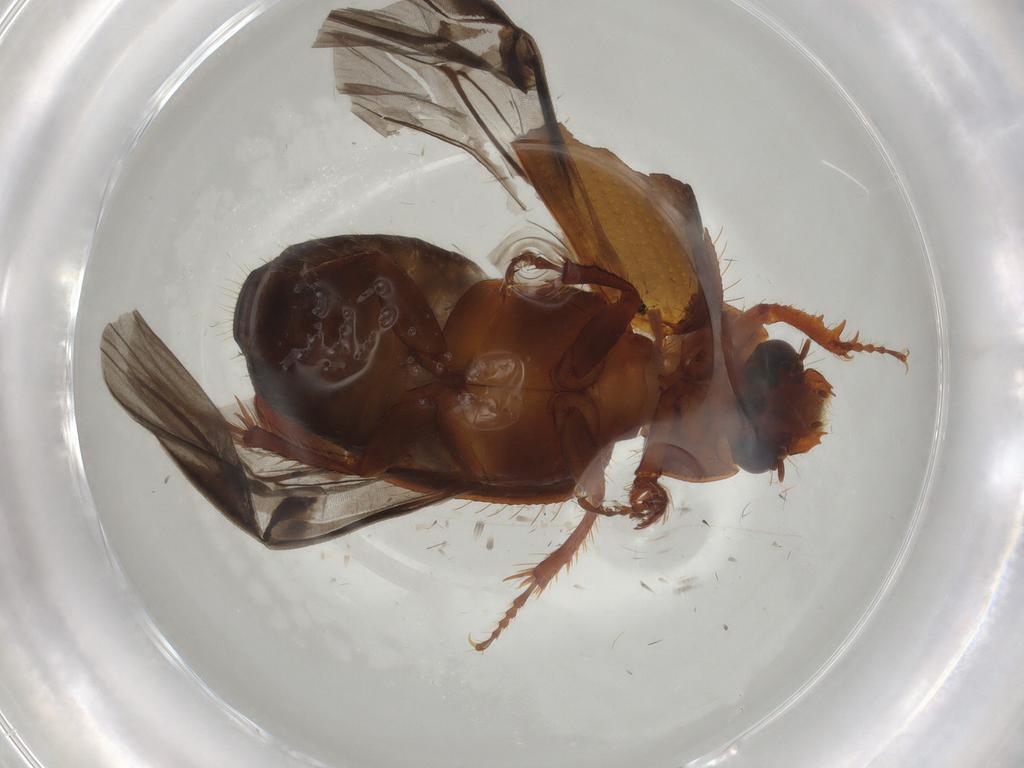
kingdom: Animalia
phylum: Arthropoda
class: Insecta
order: Coleoptera
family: Hybosoridae
